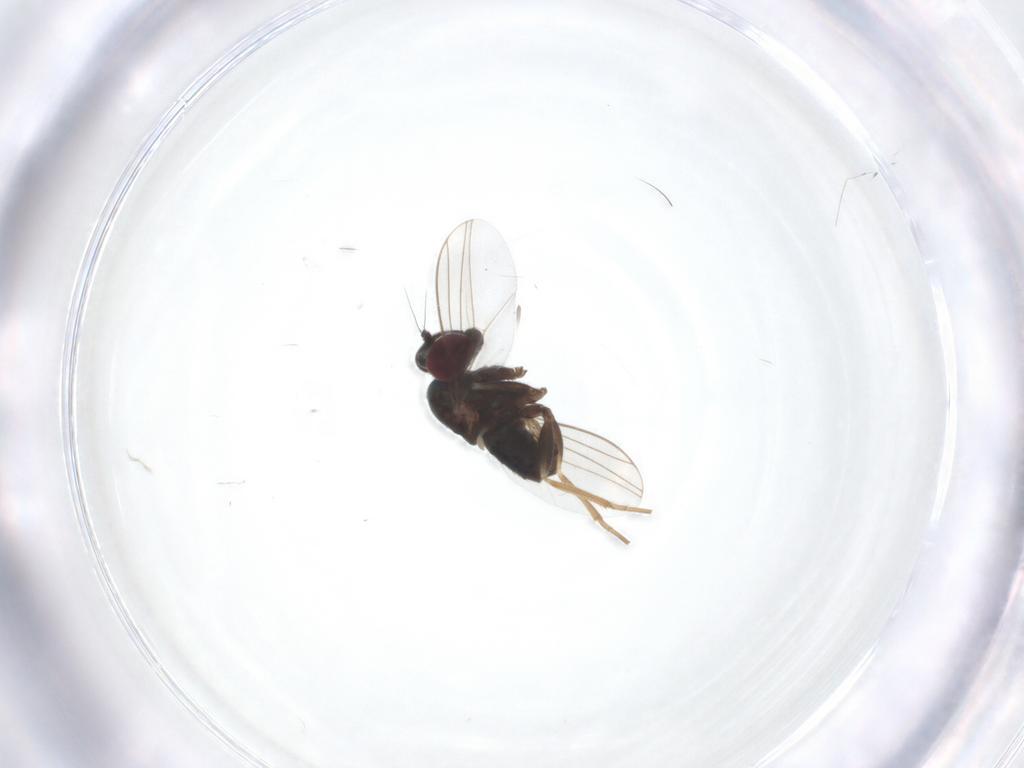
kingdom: Animalia
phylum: Arthropoda
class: Insecta
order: Diptera
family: Dolichopodidae
